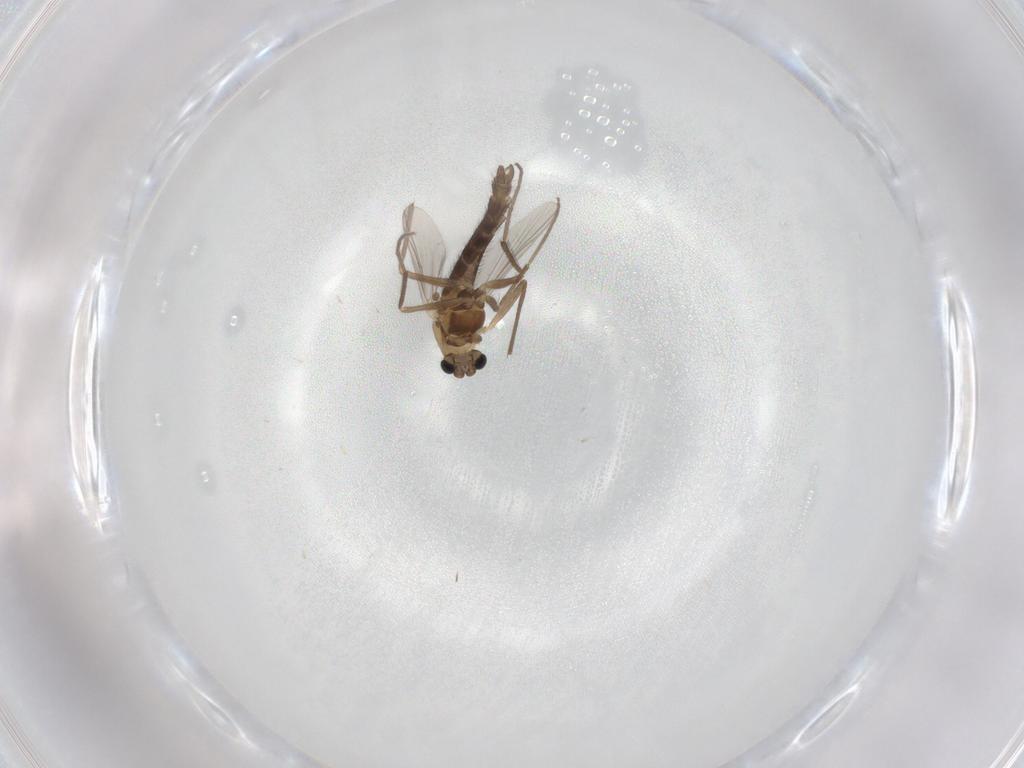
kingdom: Animalia
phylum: Arthropoda
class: Insecta
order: Diptera
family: Chironomidae
